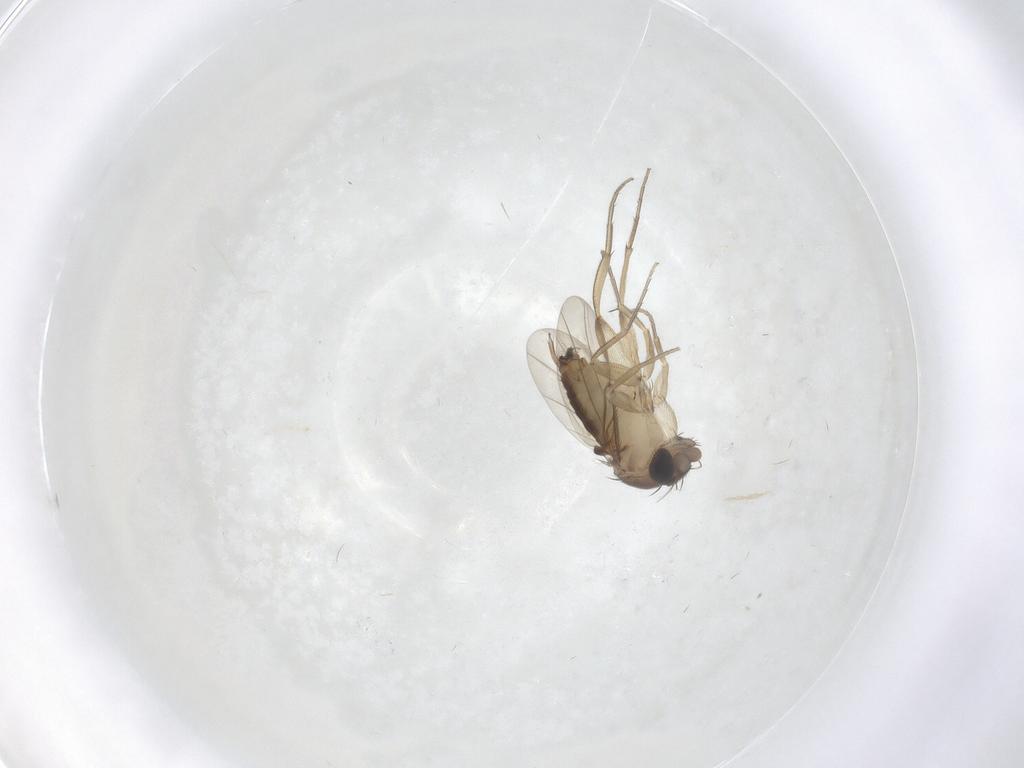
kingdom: Animalia
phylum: Arthropoda
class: Insecta
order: Diptera
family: Phoridae
